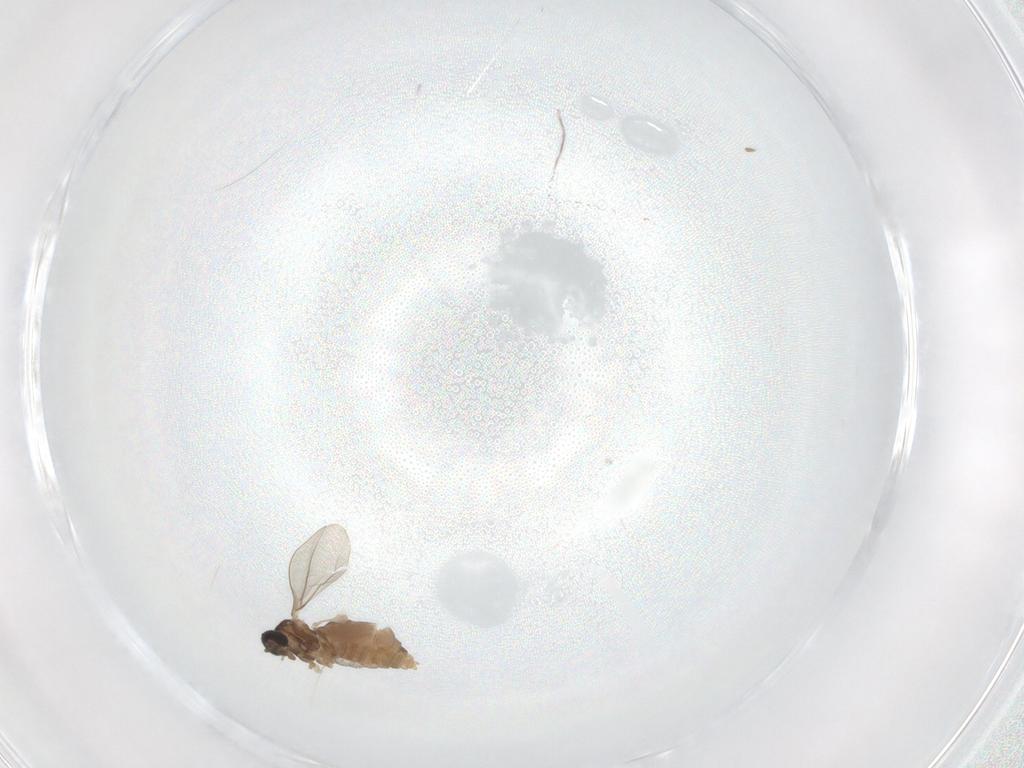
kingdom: Animalia
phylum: Arthropoda
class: Insecta
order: Diptera
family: Cecidomyiidae
